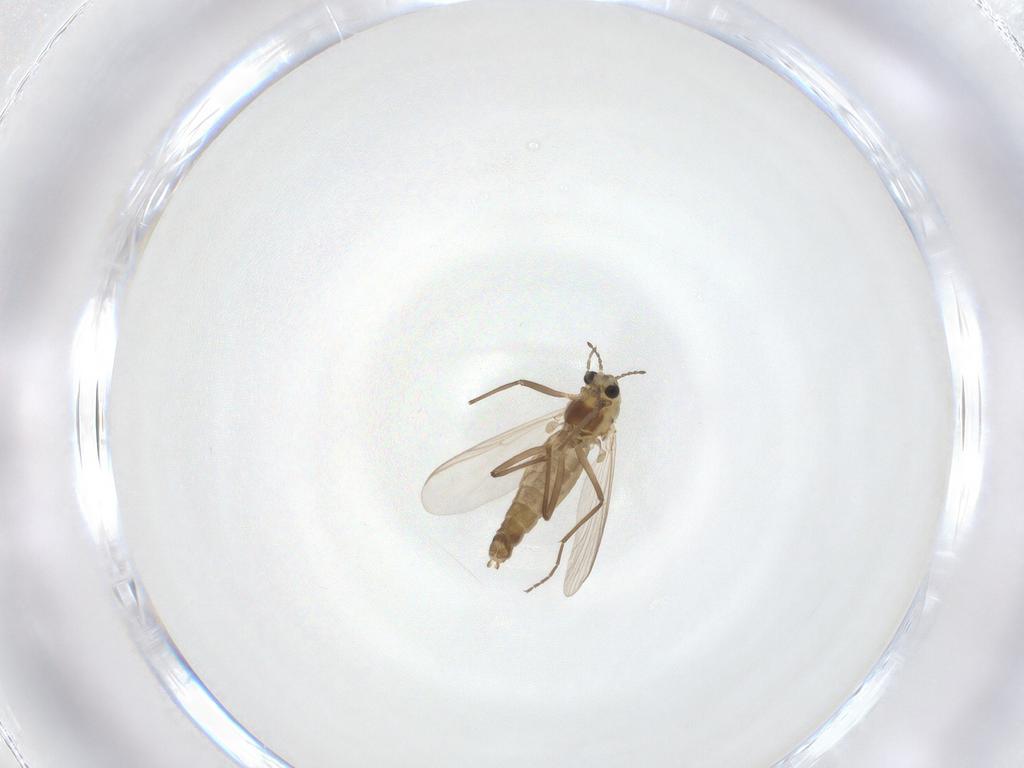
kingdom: Animalia
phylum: Arthropoda
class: Insecta
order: Diptera
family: Chironomidae
